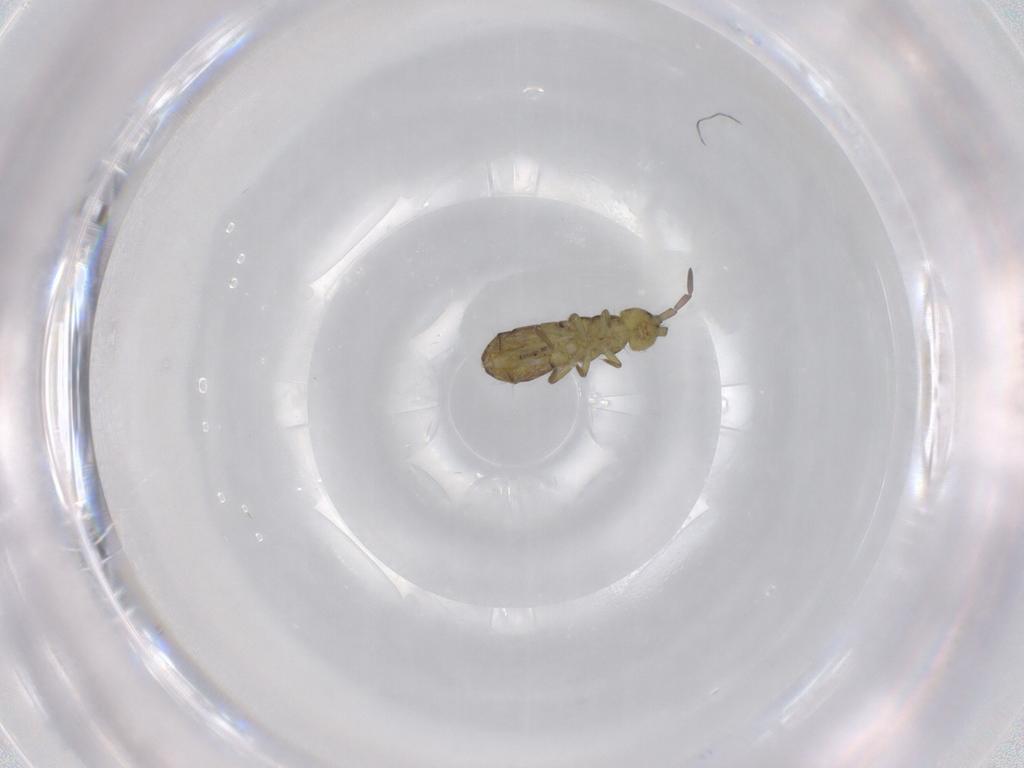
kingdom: Animalia
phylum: Arthropoda
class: Collembola
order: Entomobryomorpha
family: Isotomidae
